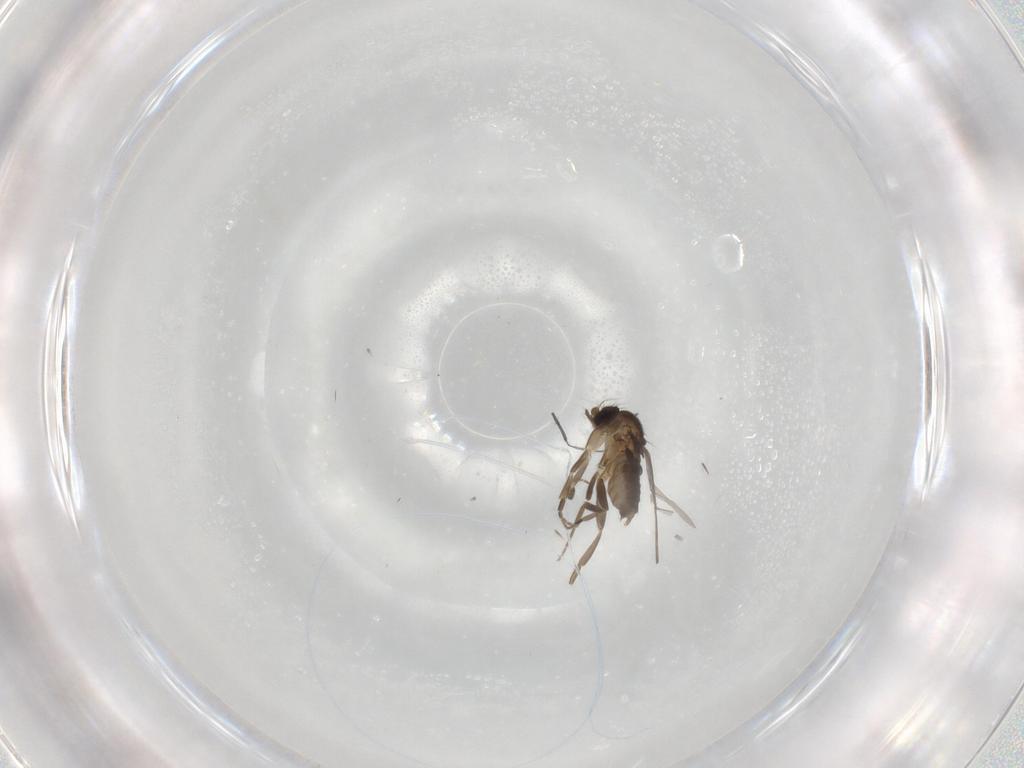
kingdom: Animalia
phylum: Arthropoda
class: Insecta
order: Diptera
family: Phoridae
